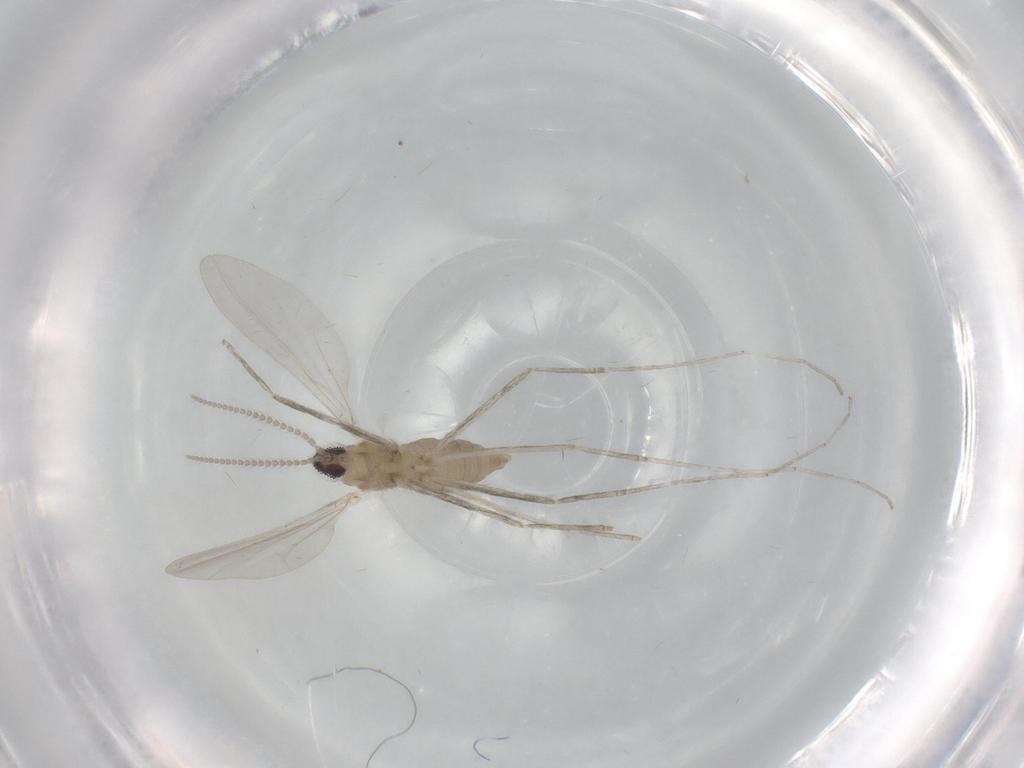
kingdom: Animalia
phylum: Arthropoda
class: Insecta
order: Diptera
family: Cecidomyiidae
